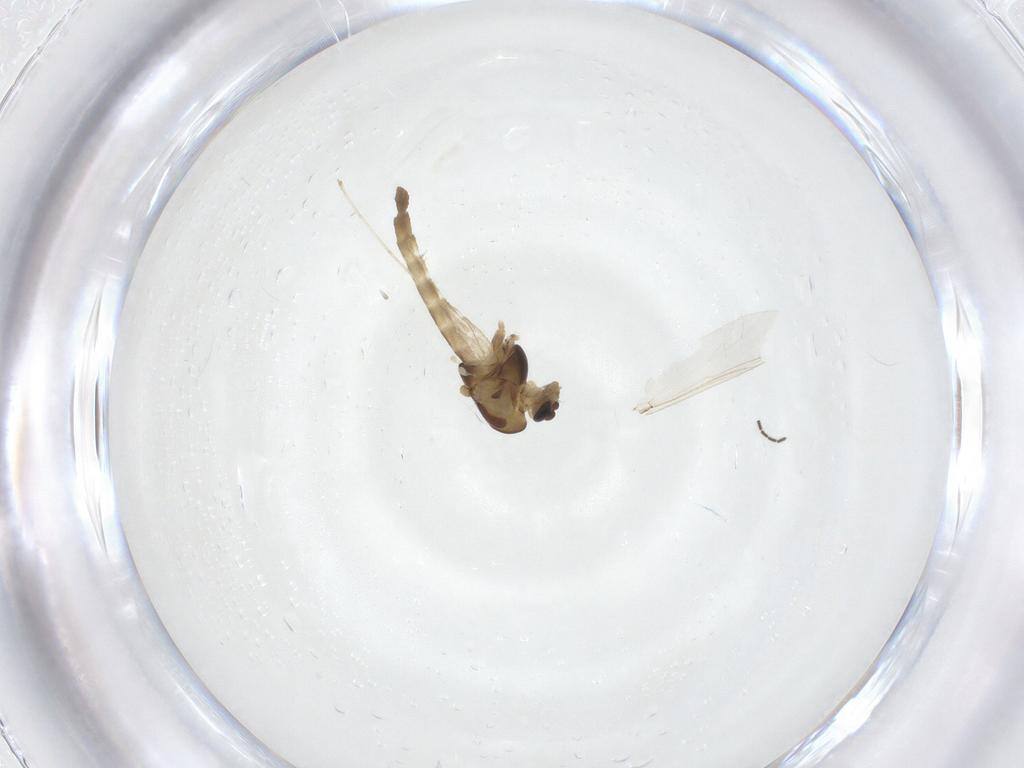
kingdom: Animalia
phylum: Arthropoda
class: Insecta
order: Diptera
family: Chironomidae
